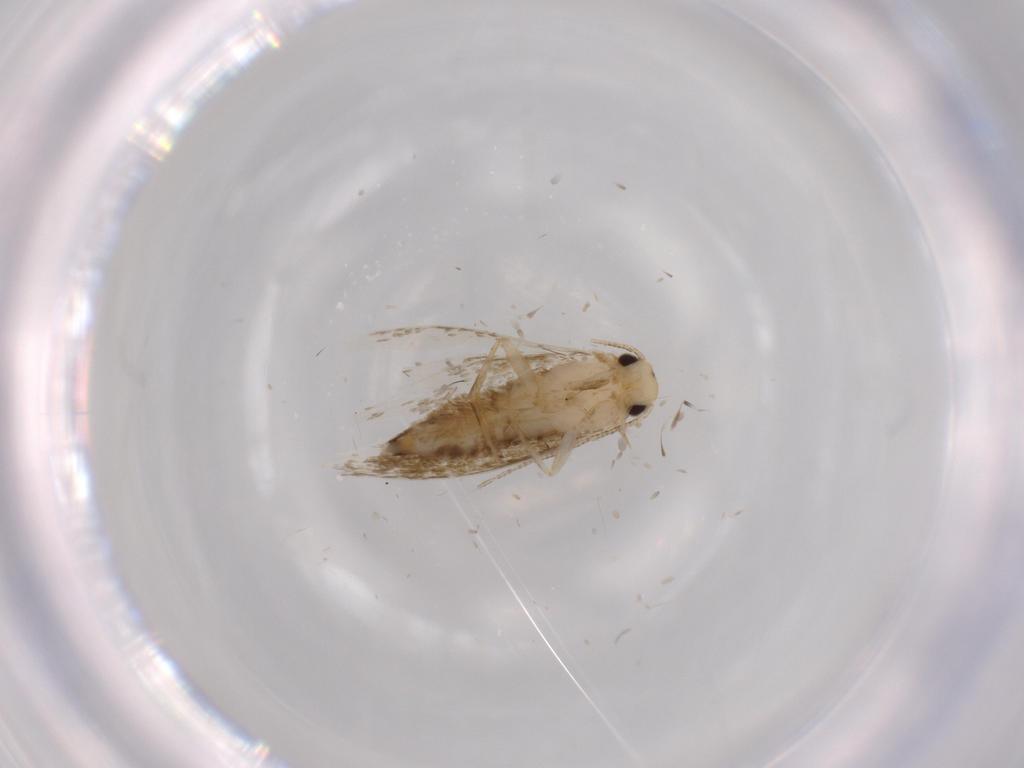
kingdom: Animalia
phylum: Arthropoda
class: Insecta
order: Lepidoptera
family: Tineidae
